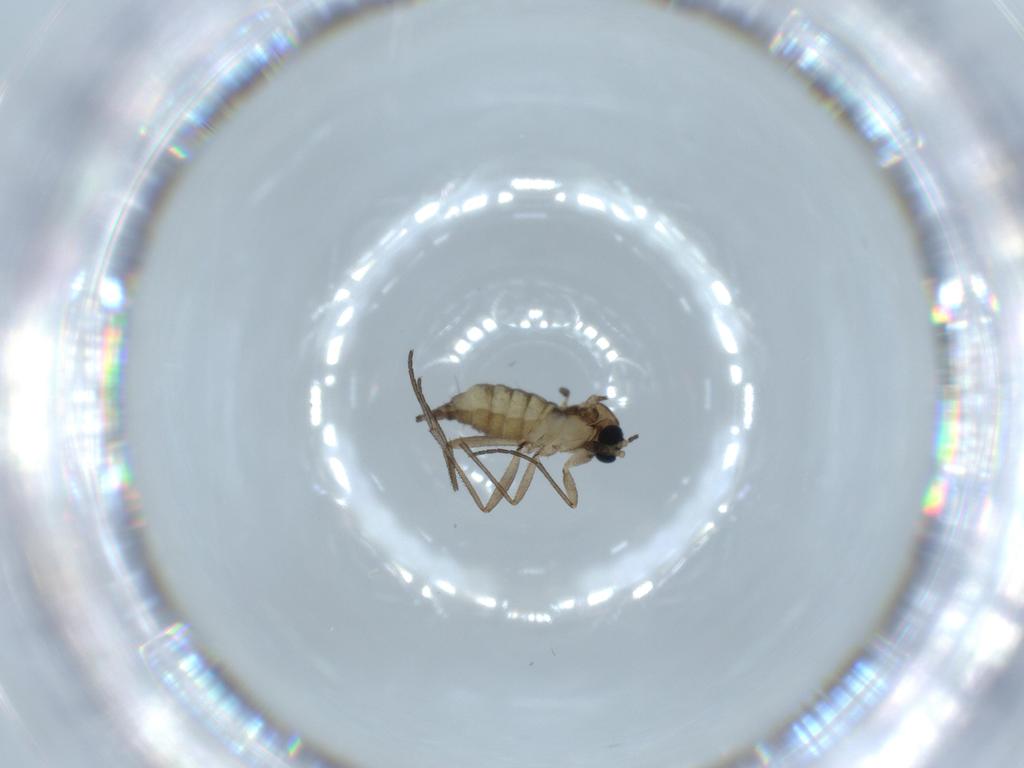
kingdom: Animalia
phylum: Arthropoda
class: Insecta
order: Diptera
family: Sciaridae
